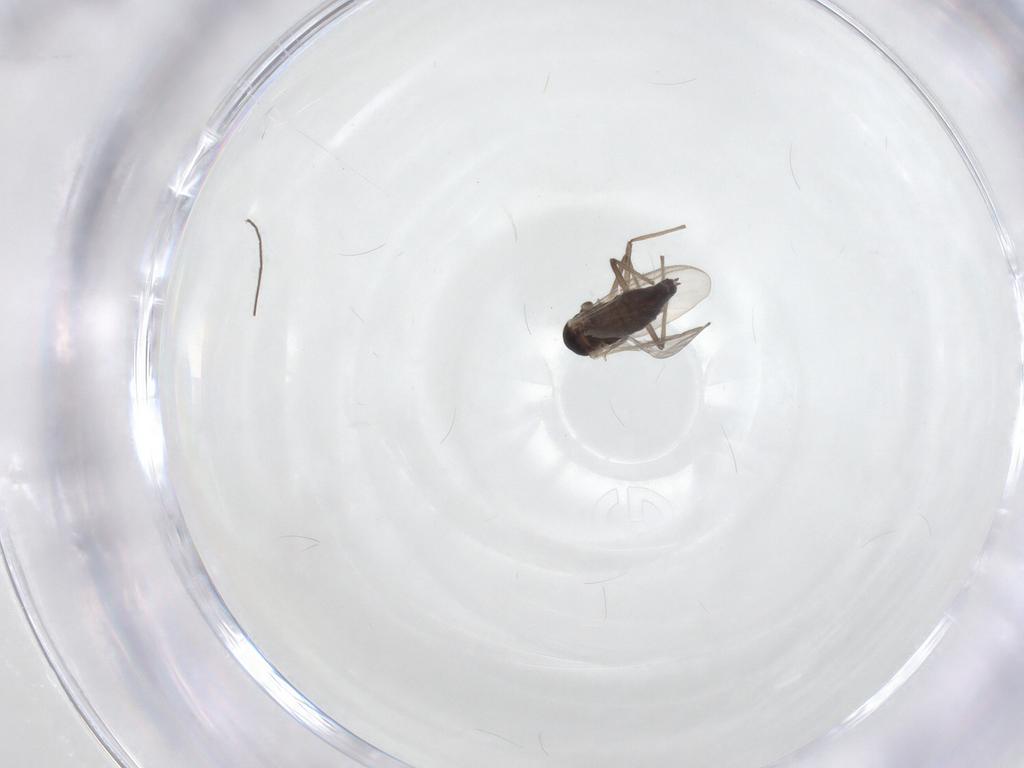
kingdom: Animalia
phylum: Arthropoda
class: Insecta
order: Diptera
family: Chironomidae
